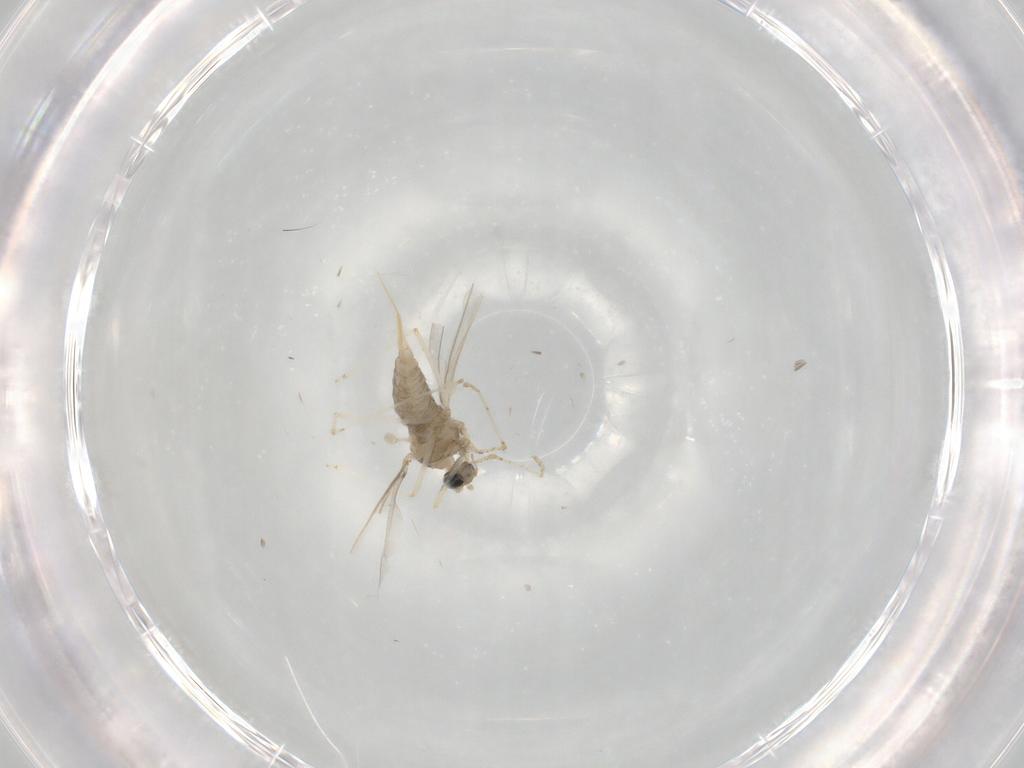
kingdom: Animalia
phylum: Arthropoda
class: Insecta
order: Diptera
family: Cecidomyiidae
